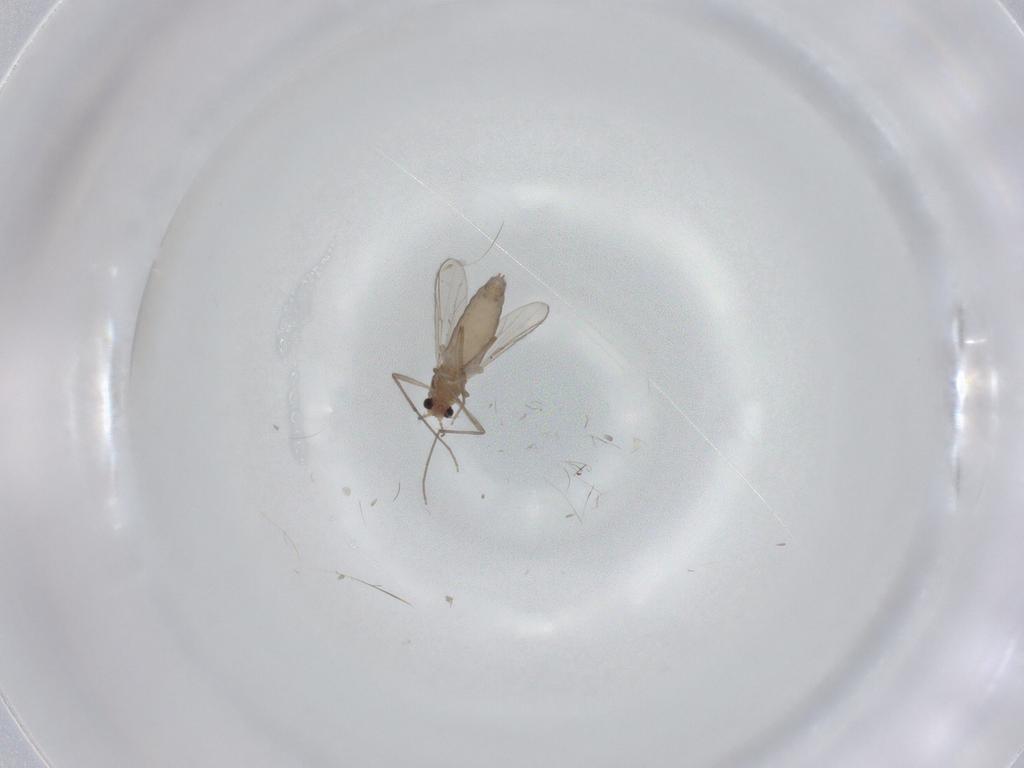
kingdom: Animalia
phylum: Arthropoda
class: Insecta
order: Diptera
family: Chironomidae
